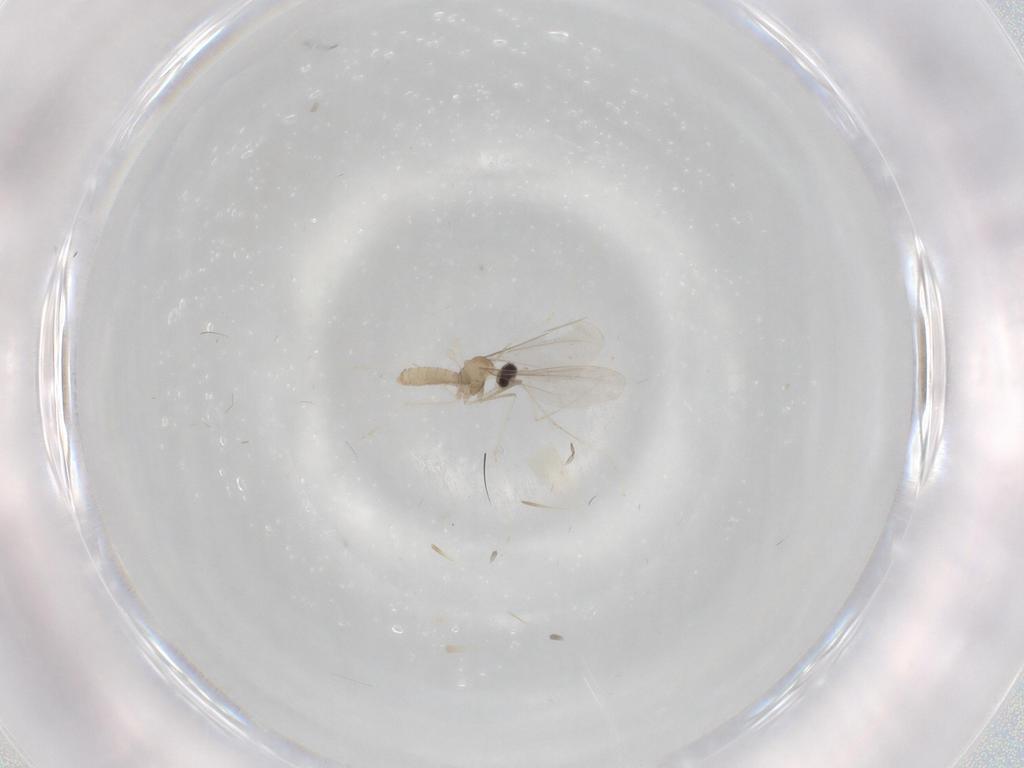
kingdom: Animalia
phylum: Arthropoda
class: Insecta
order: Diptera
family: Cecidomyiidae
